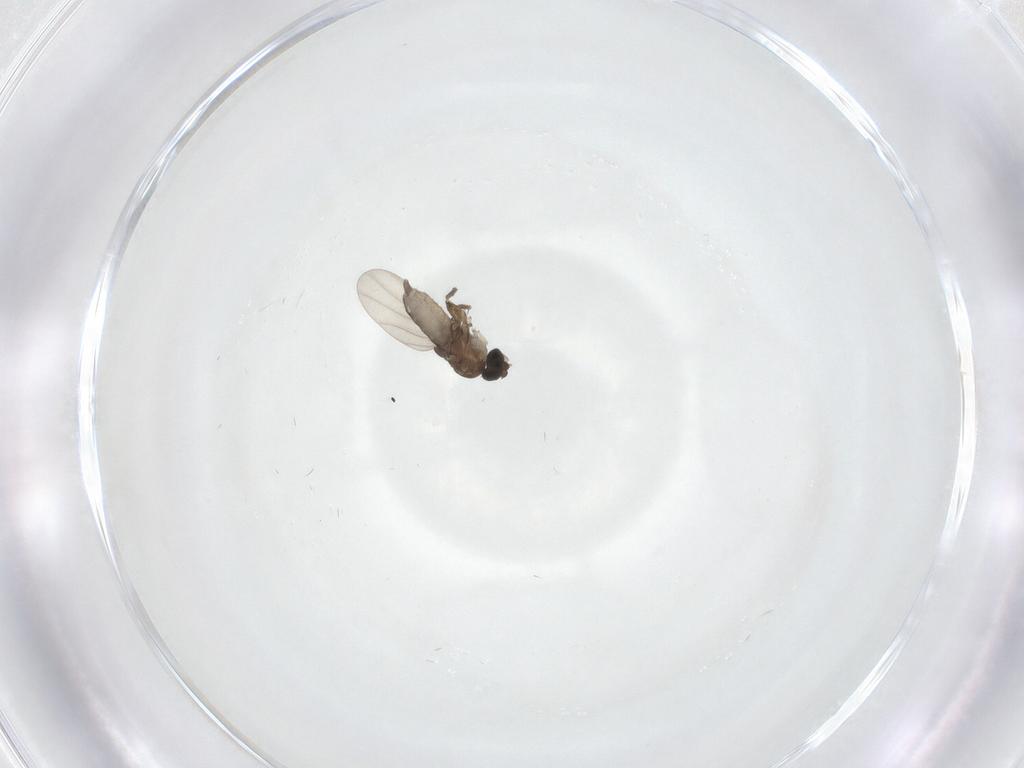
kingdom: Animalia
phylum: Arthropoda
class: Insecta
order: Diptera
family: Phoridae
